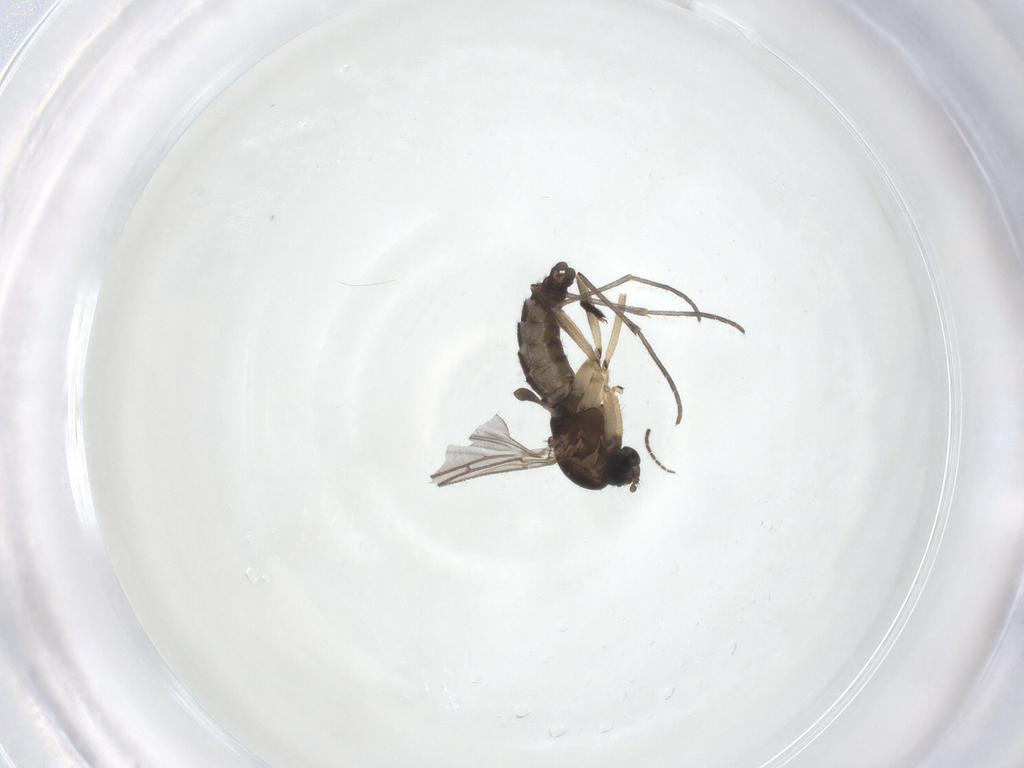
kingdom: Animalia
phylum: Arthropoda
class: Insecta
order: Diptera
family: Sciaridae
